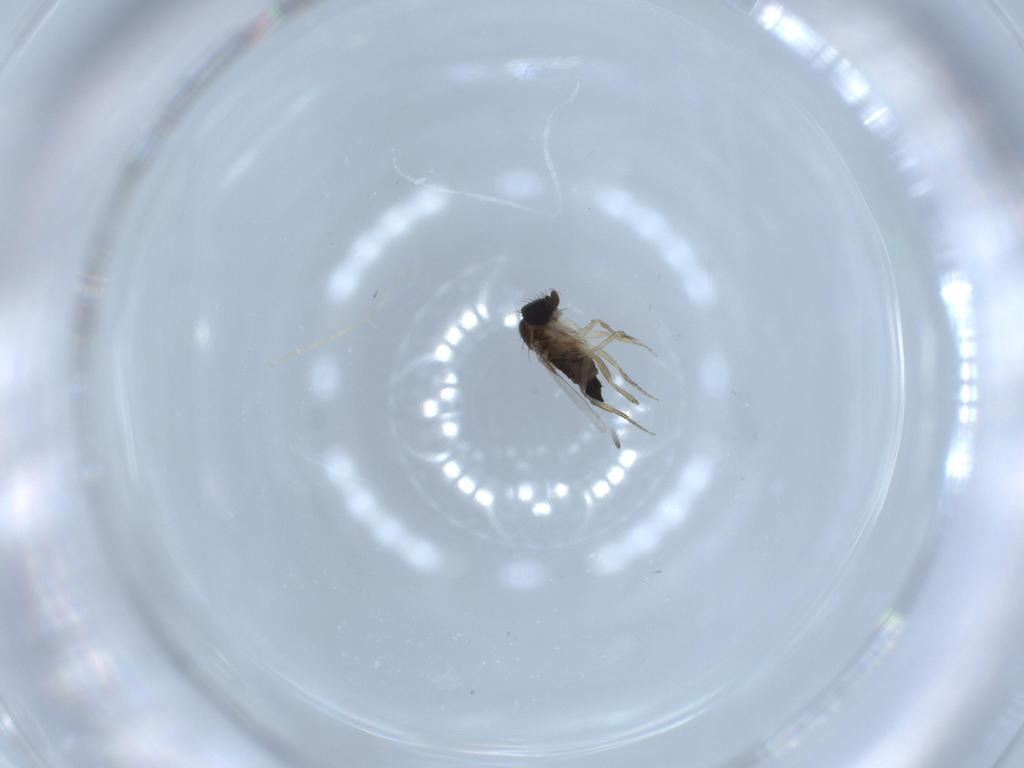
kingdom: Animalia
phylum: Arthropoda
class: Insecta
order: Diptera
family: Phoridae
